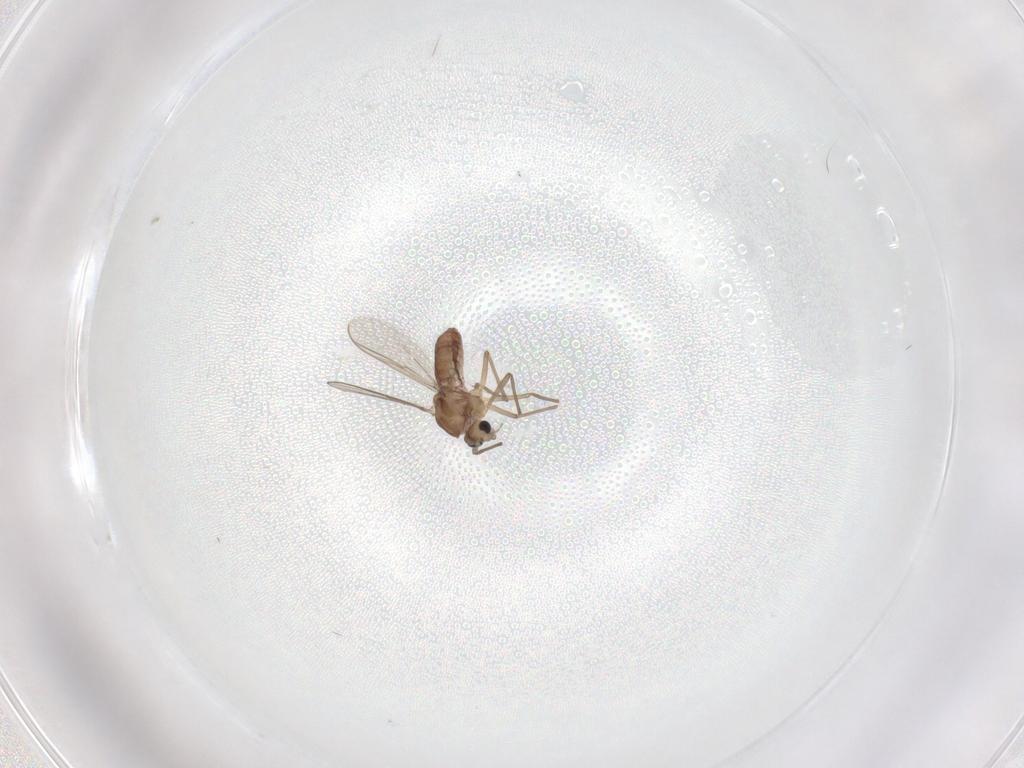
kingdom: Animalia
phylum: Arthropoda
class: Insecta
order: Diptera
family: Chironomidae
